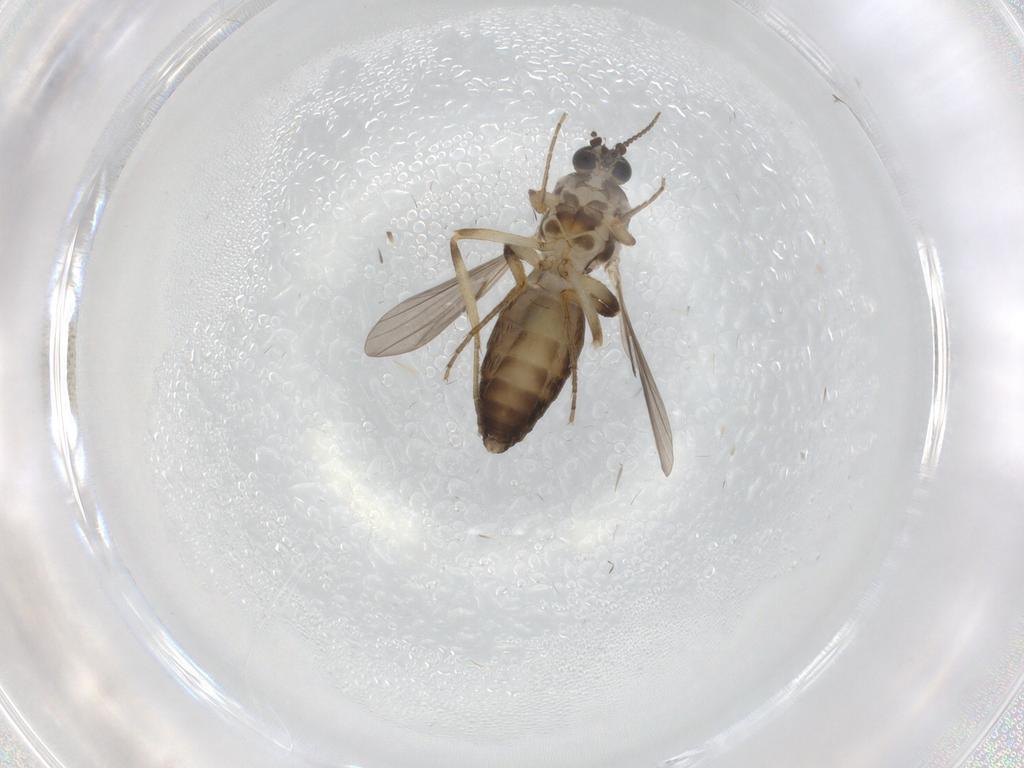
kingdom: Animalia
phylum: Arthropoda
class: Insecta
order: Diptera
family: Ceratopogonidae
